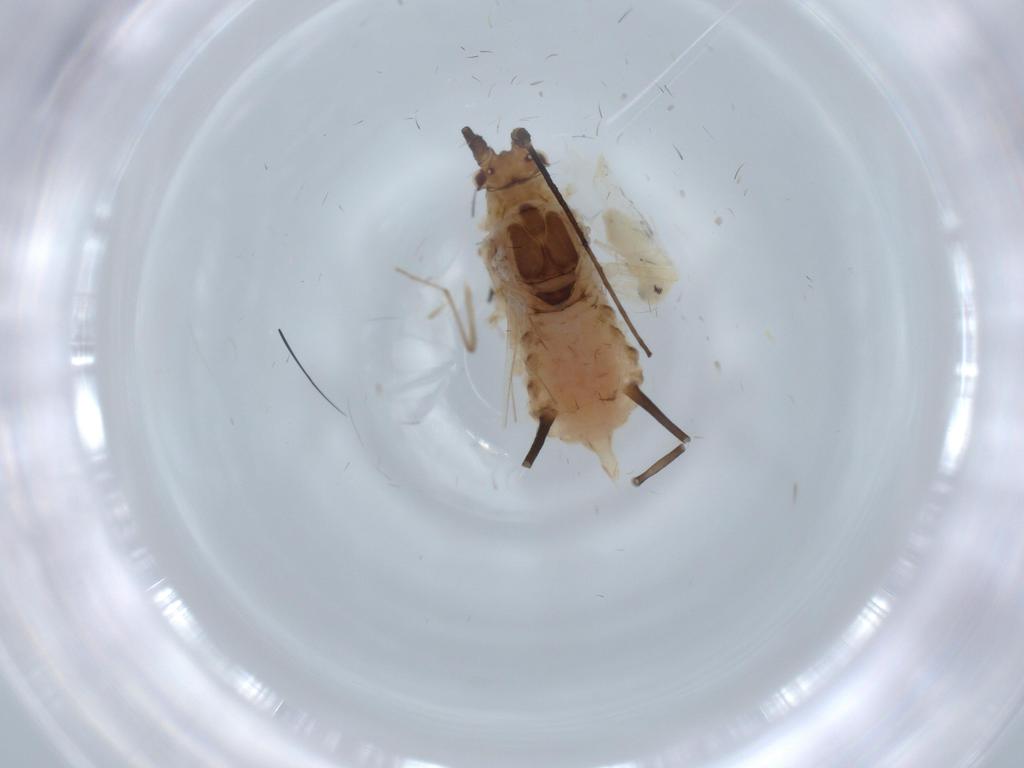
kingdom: Animalia
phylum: Arthropoda
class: Insecta
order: Hemiptera
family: Aphididae
